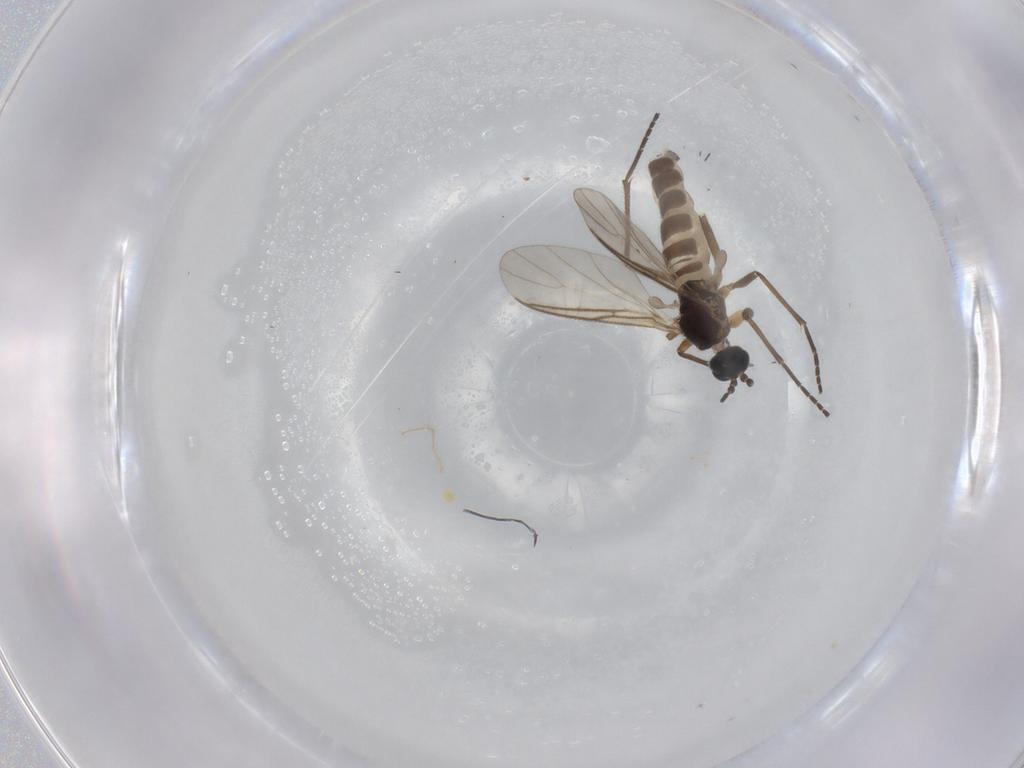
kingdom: Animalia
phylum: Arthropoda
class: Insecta
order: Diptera
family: Sciaridae
